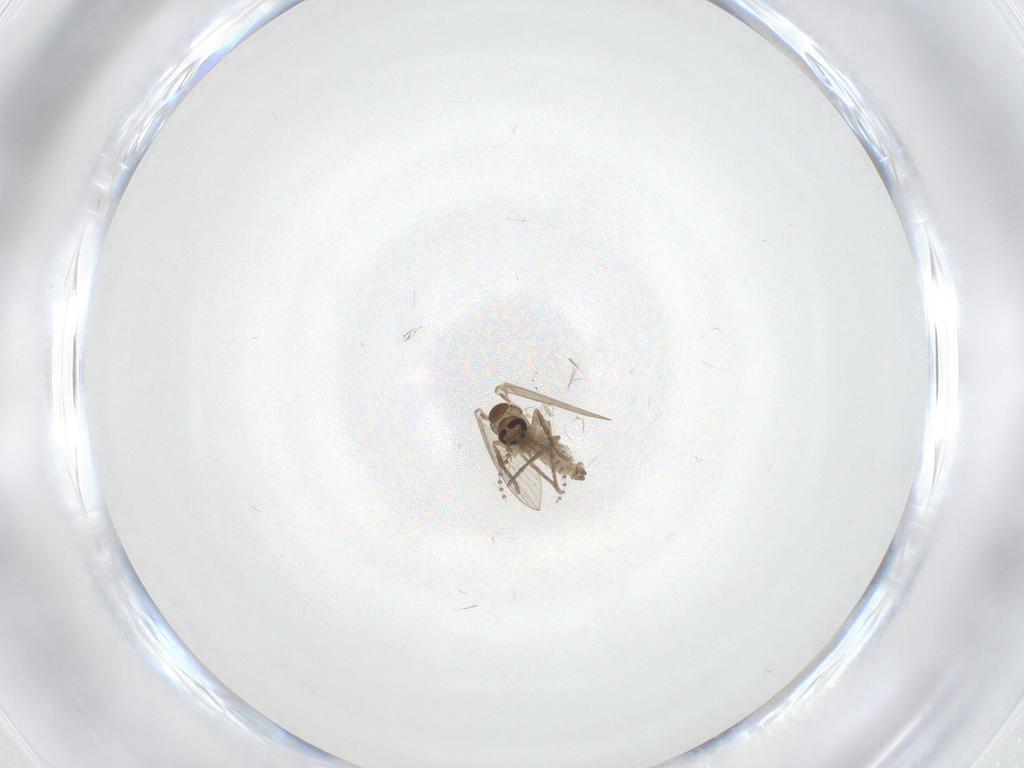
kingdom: Animalia
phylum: Arthropoda
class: Insecta
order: Diptera
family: Psychodidae
